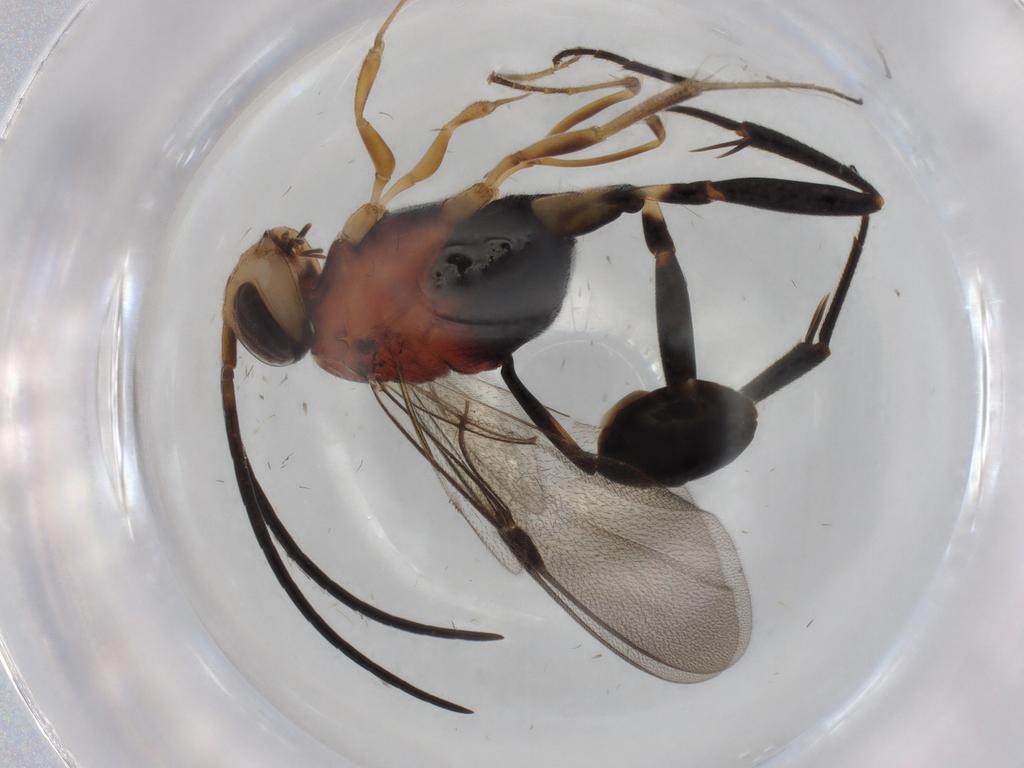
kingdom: Animalia
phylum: Arthropoda
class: Insecta
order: Hymenoptera
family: Evaniidae
